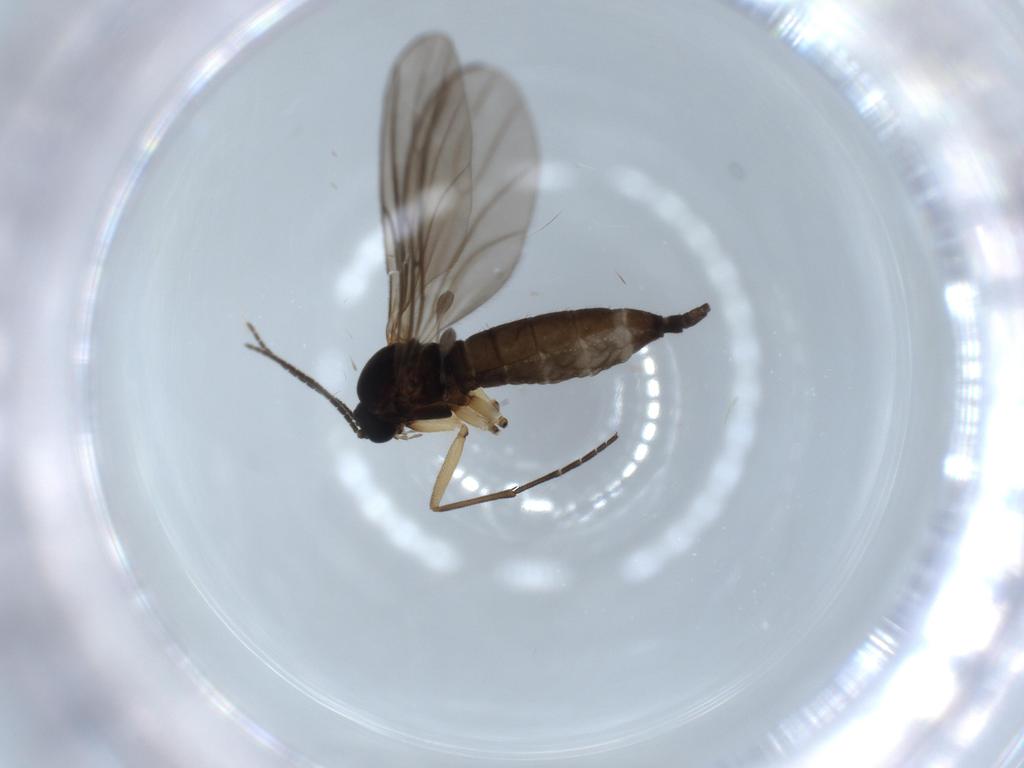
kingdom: Animalia
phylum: Arthropoda
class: Insecta
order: Diptera
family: Sciaridae
